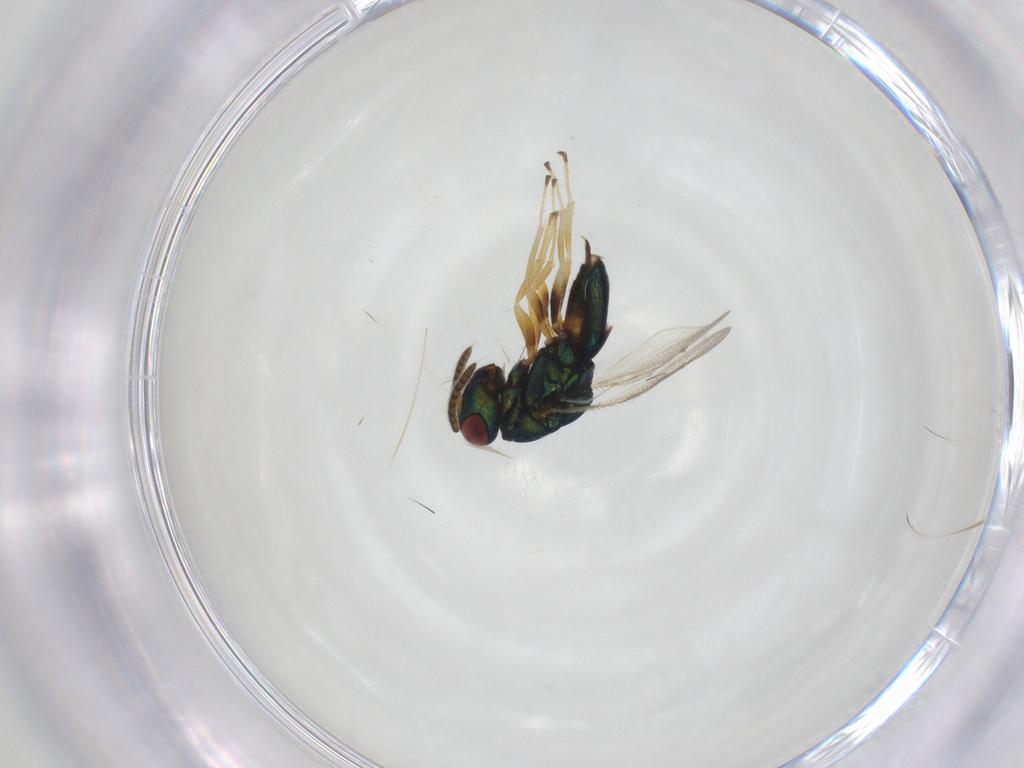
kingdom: Animalia
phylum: Arthropoda
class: Insecta
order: Hymenoptera
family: Pteromalidae
